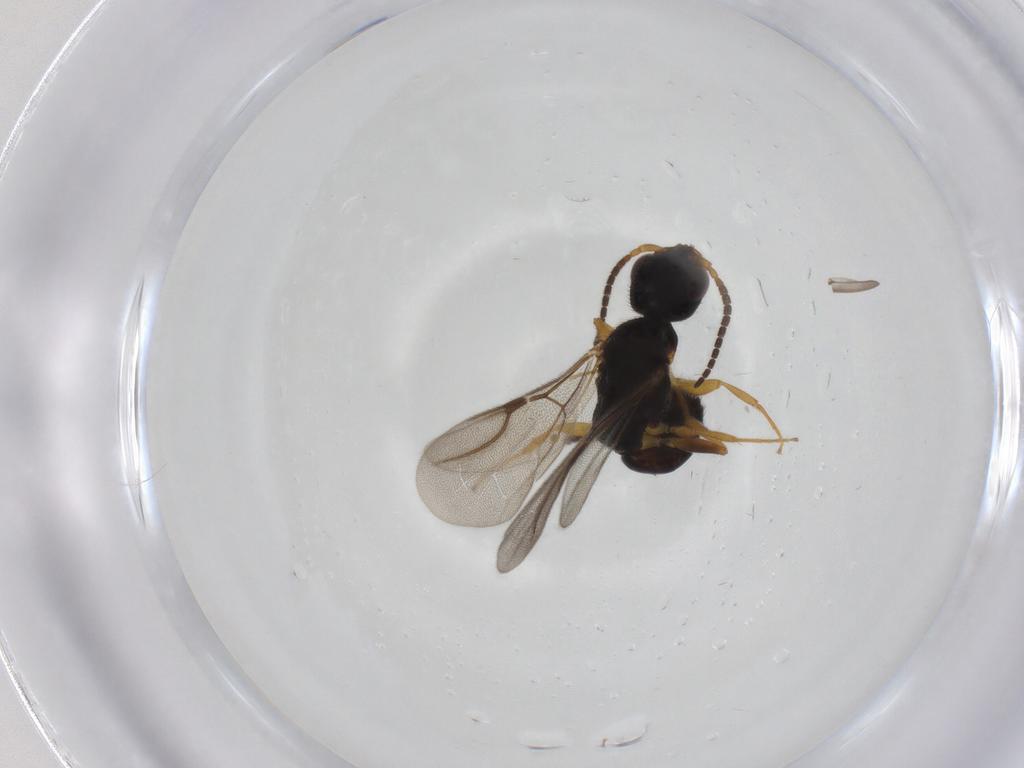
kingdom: Animalia
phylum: Arthropoda
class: Insecta
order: Hymenoptera
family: Bethylidae
